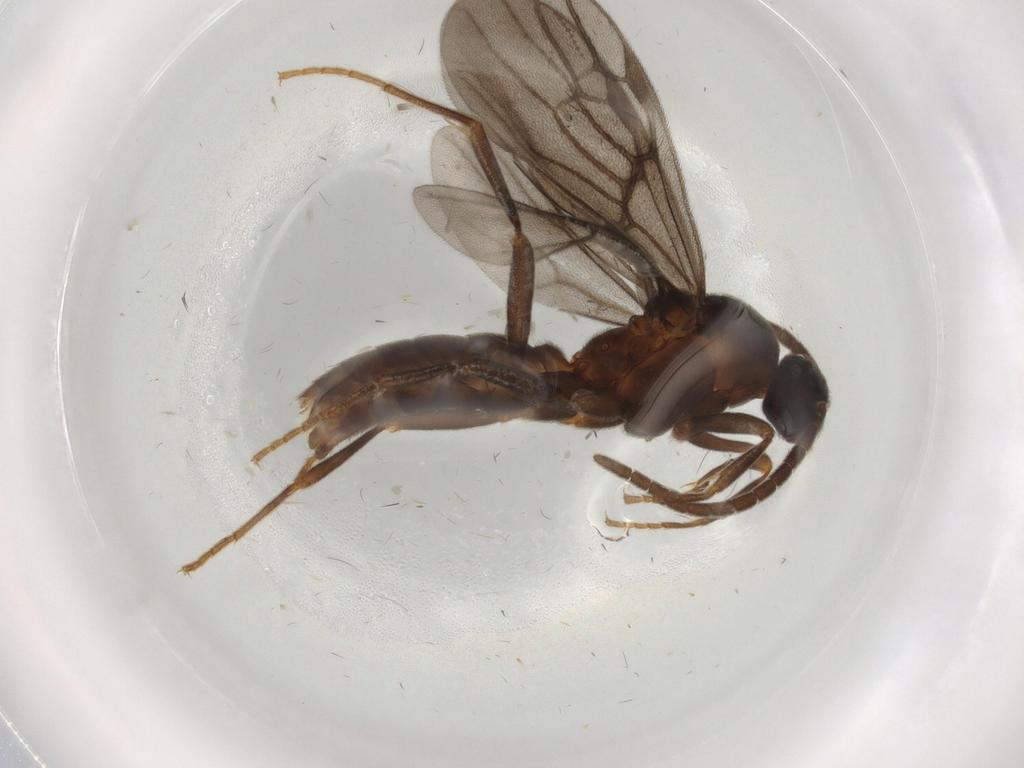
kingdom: Animalia
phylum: Arthropoda
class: Insecta
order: Hymenoptera
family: Formicidae
